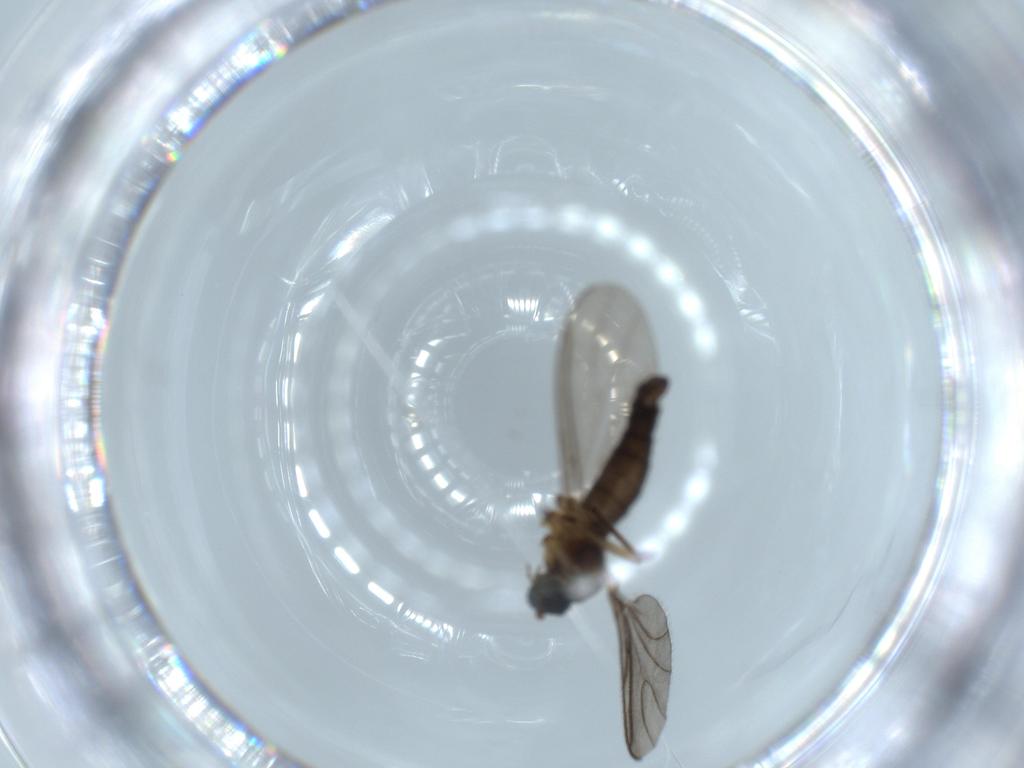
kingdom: Animalia
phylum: Arthropoda
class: Insecta
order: Diptera
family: Sciaridae
